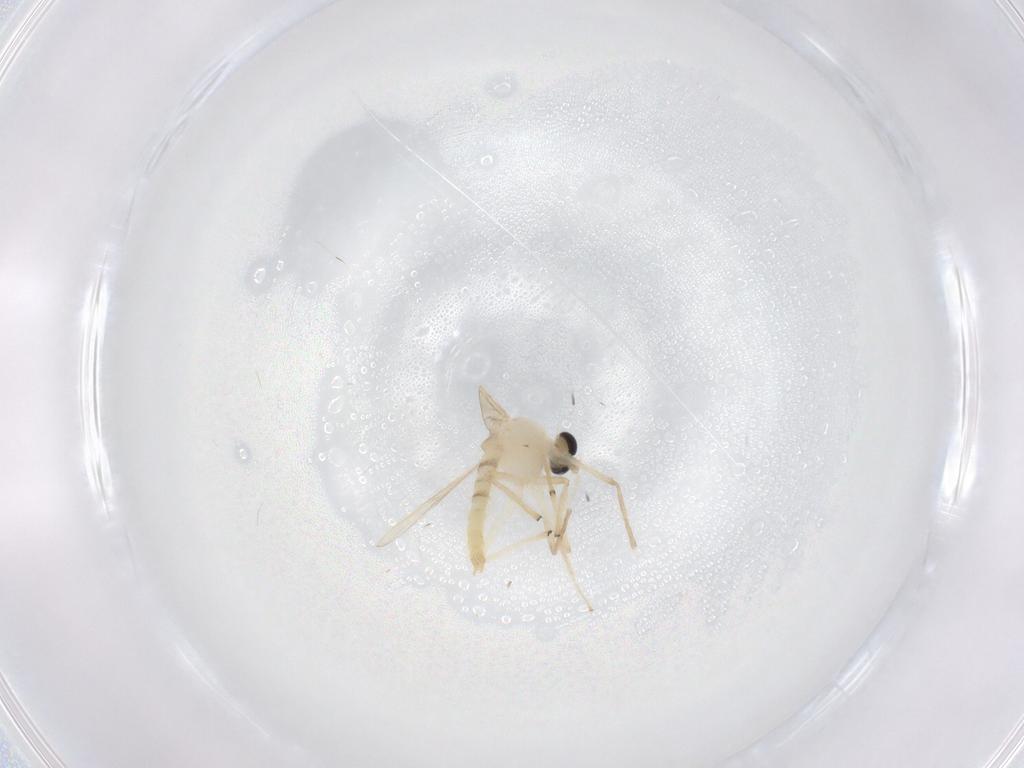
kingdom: Animalia
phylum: Arthropoda
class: Insecta
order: Diptera
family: Chironomidae
